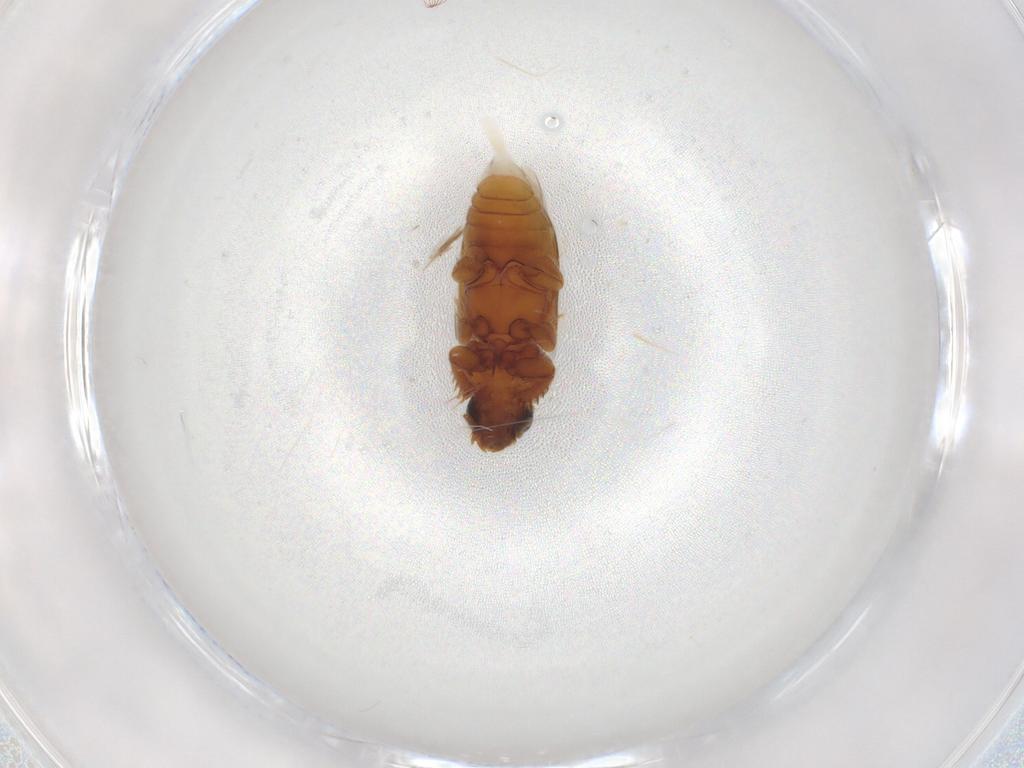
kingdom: Animalia
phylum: Arthropoda
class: Insecta
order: Coleoptera
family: Heteroceridae
